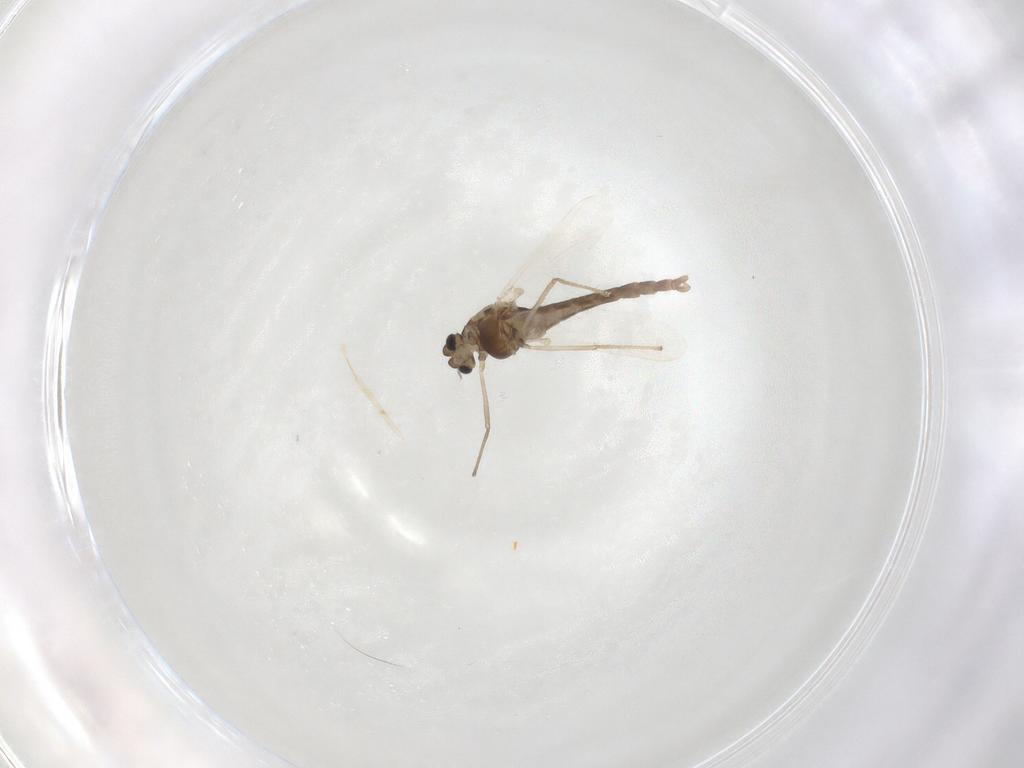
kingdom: Animalia
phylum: Arthropoda
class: Insecta
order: Diptera
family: Chironomidae
